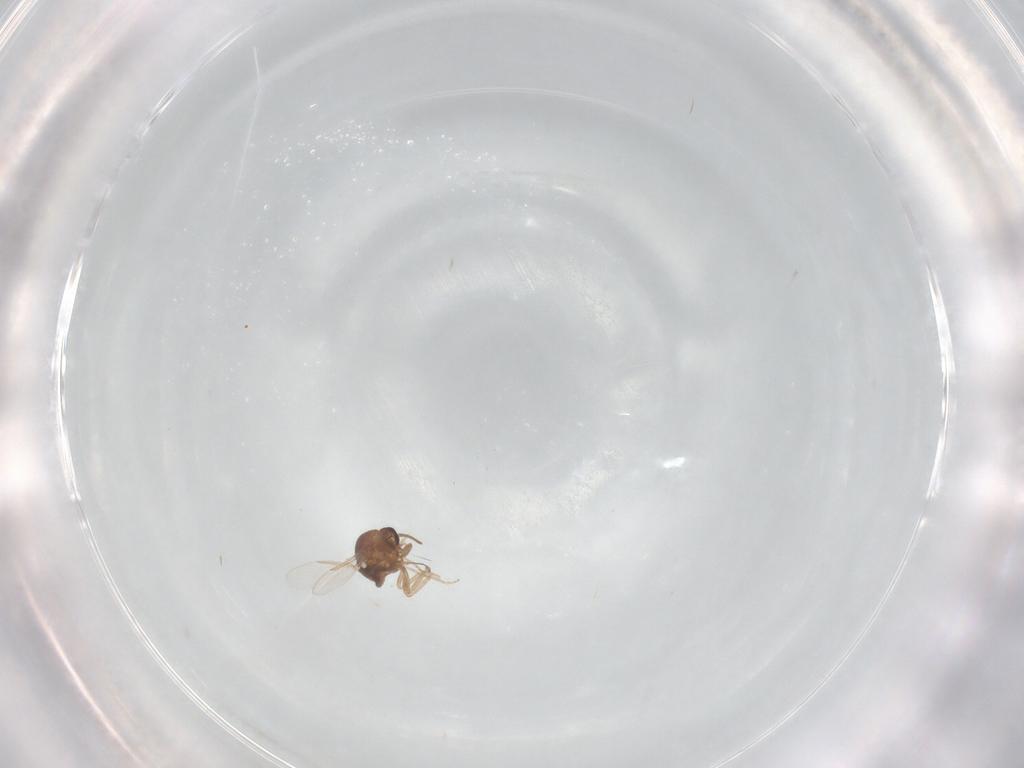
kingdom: Animalia
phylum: Arthropoda
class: Insecta
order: Diptera
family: Ceratopogonidae
